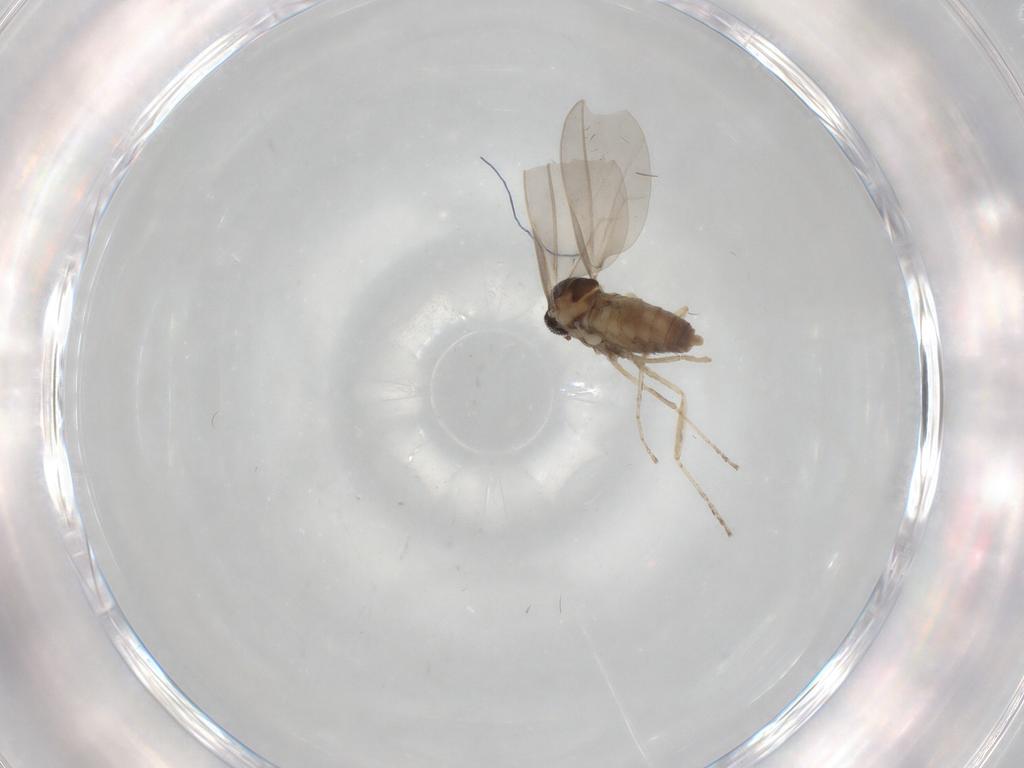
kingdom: Animalia
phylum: Arthropoda
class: Insecta
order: Diptera
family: Cecidomyiidae
